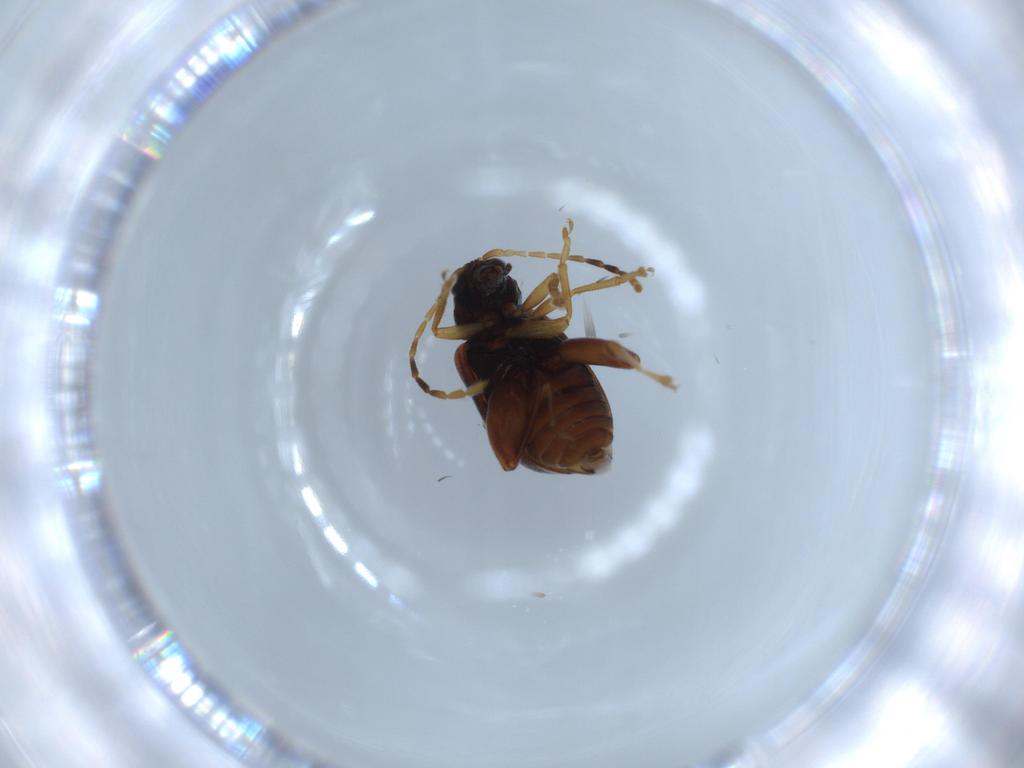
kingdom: Animalia
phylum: Arthropoda
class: Insecta
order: Coleoptera
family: Chrysomelidae
